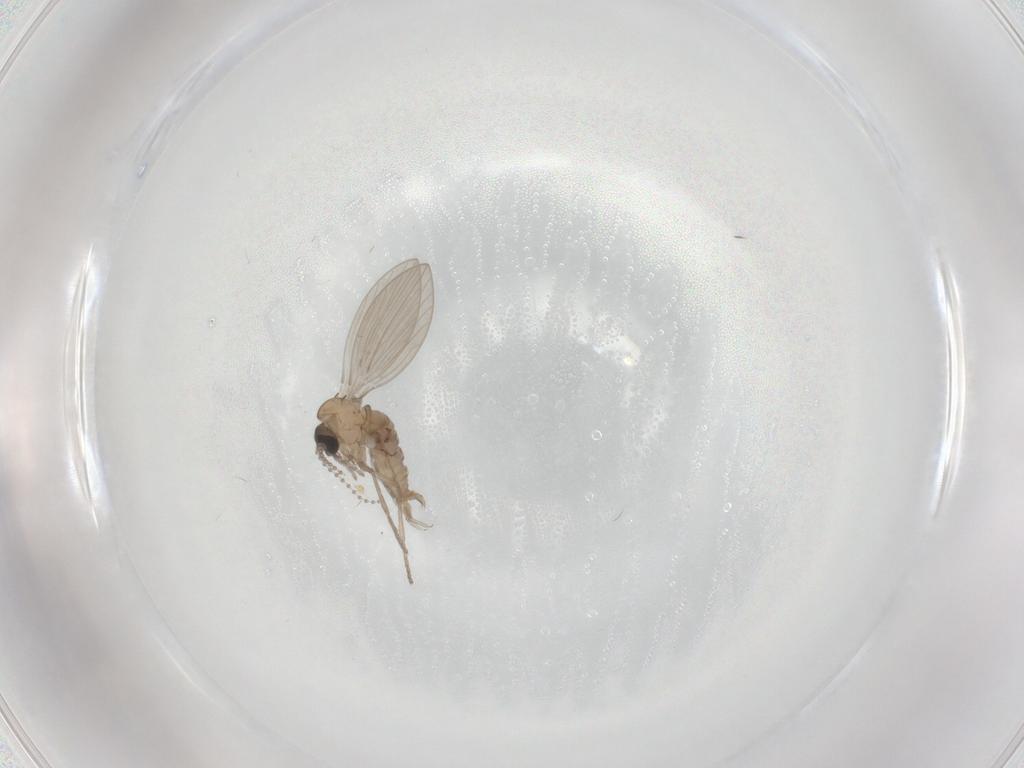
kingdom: Animalia
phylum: Arthropoda
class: Insecta
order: Diptera
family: Psychodidae
